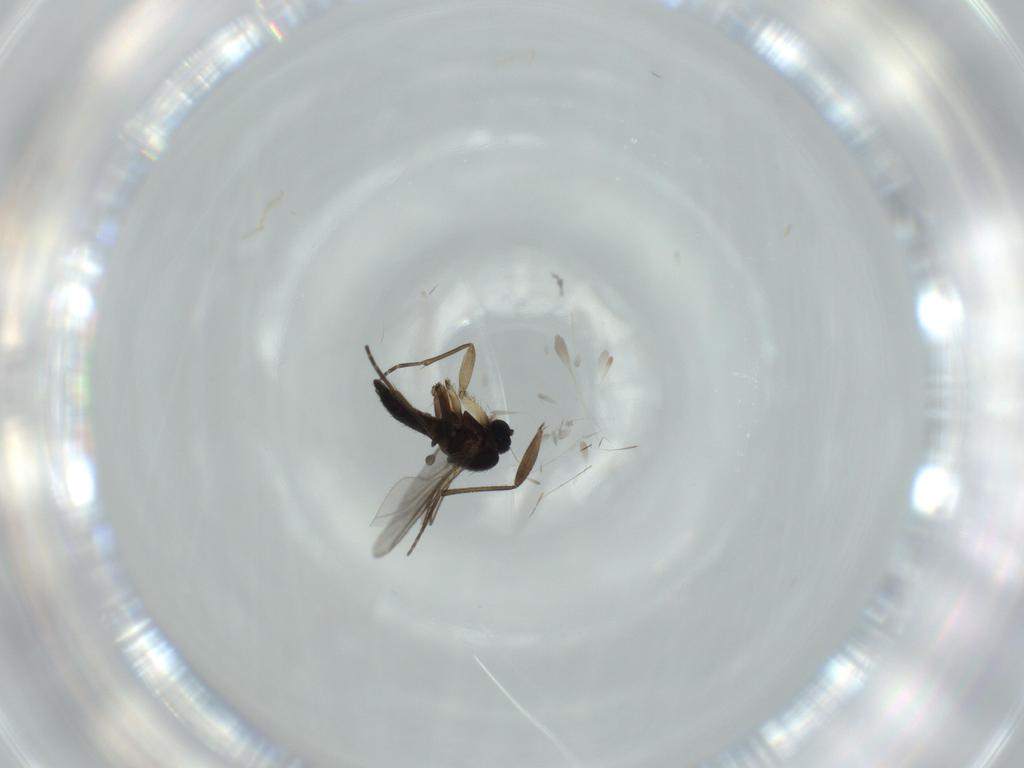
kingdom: Animalia
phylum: Arthropoda
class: Insecta
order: Diptera
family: Sciaridae
